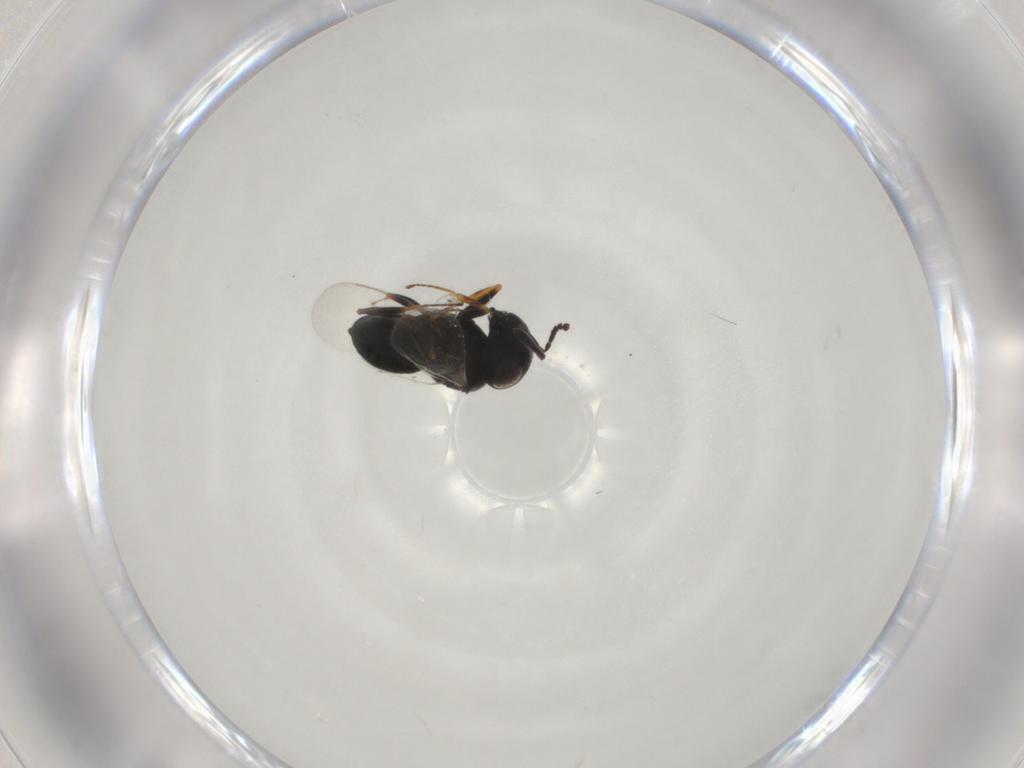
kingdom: Animalia
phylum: Arthropoda
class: Insecta
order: Hymenoptera
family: Scelionidae
